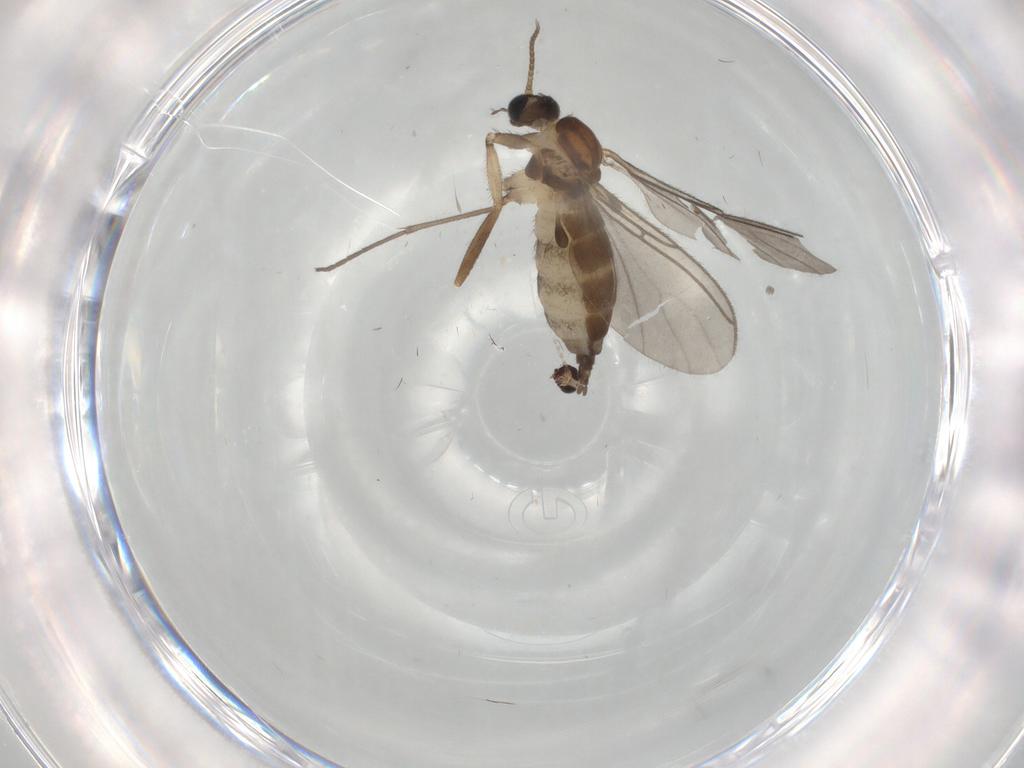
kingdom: Animalia
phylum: Arthropoda
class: Insecta
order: Diptera
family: Sciaridae
